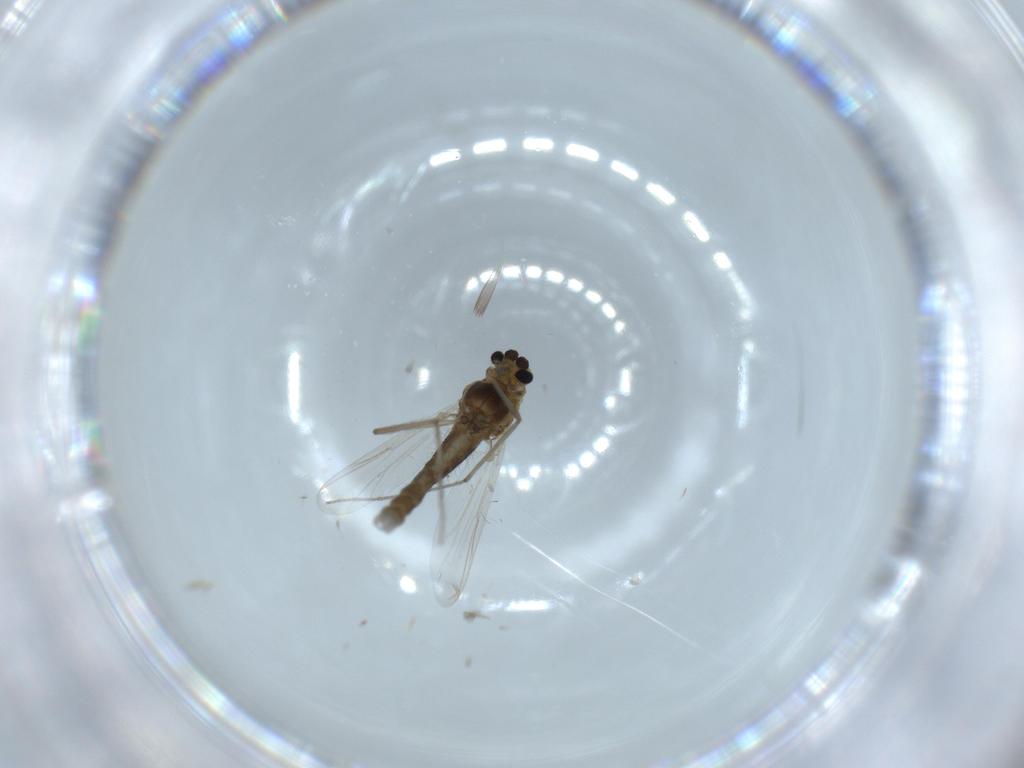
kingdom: Animalia
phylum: Arthropoda
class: Insecta
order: Diptera
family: Chironomidae
